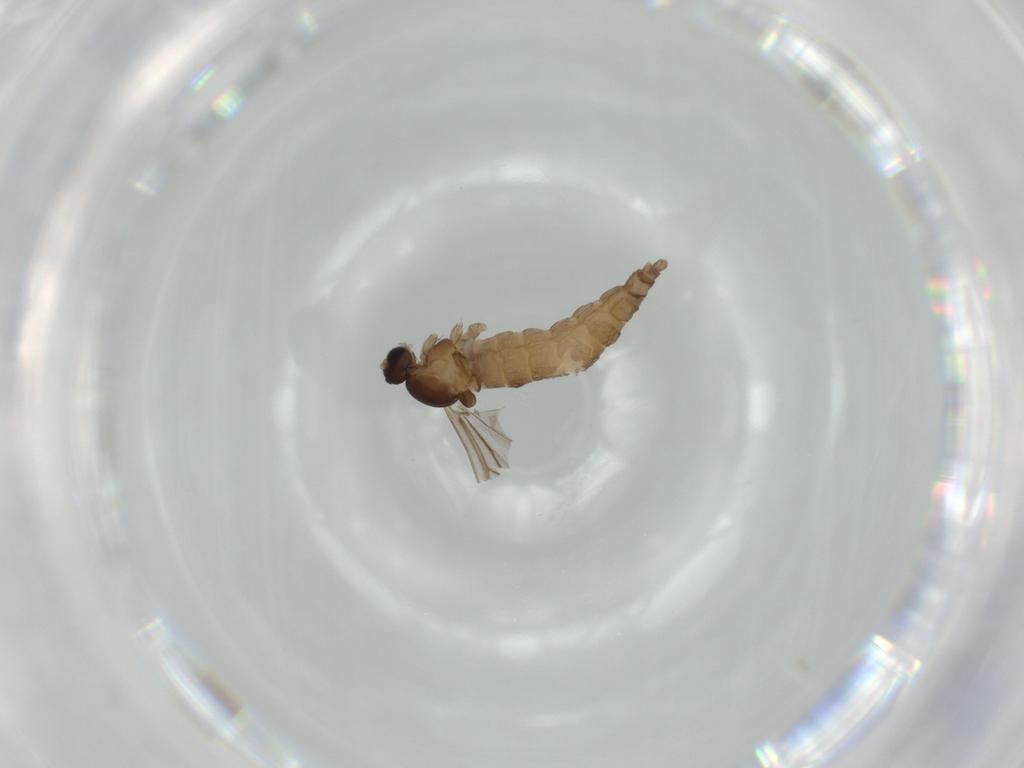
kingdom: Animalia
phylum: Arthropoda
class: Insecta
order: Diptera
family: Cecidomyiidae
